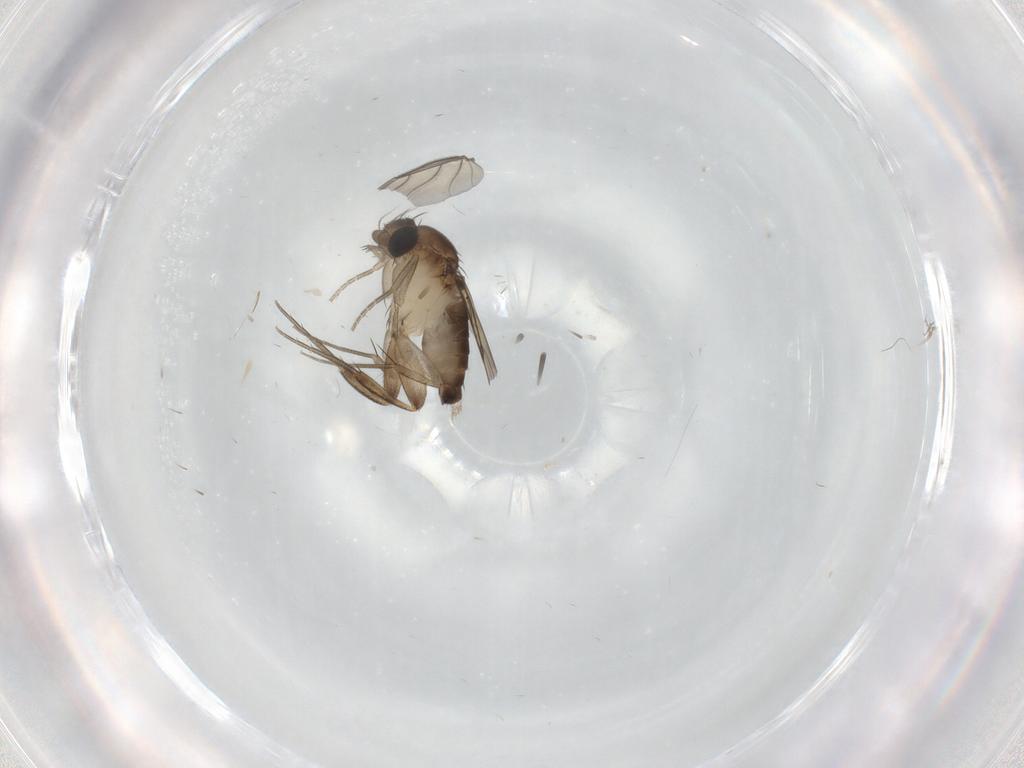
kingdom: Animalia
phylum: Arthropoda
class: Insecta
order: Diptera
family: Phoridae
